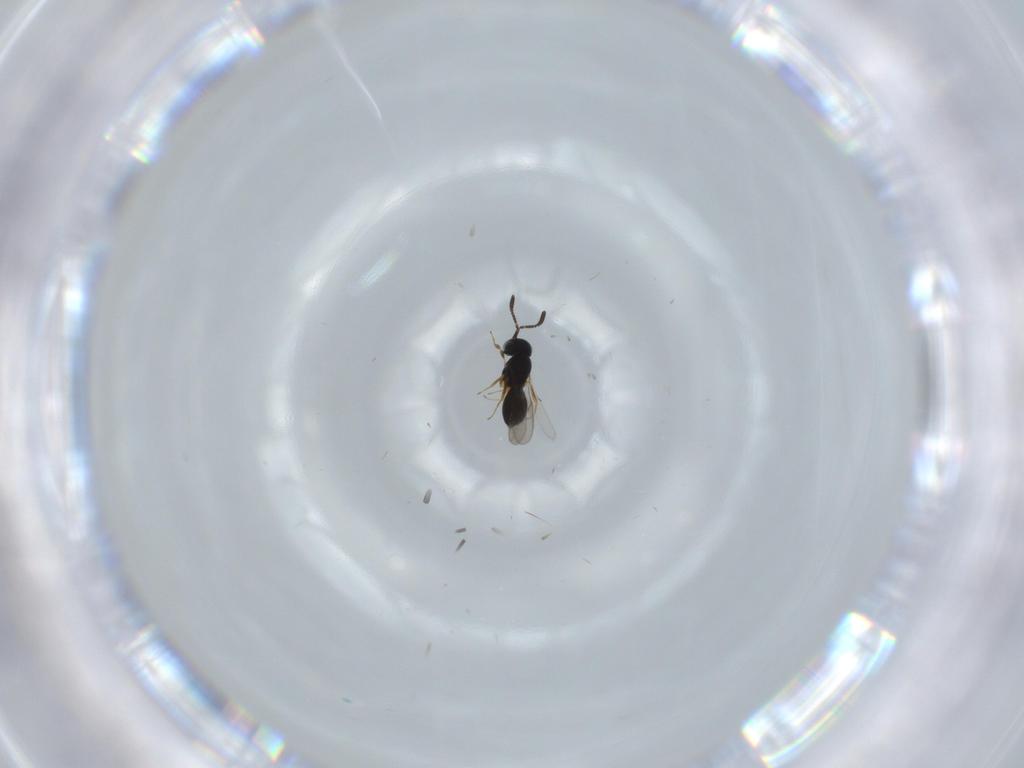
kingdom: Animalia
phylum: Arthropoda
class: Insecta
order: Hymenoptera
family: Scelionidae
